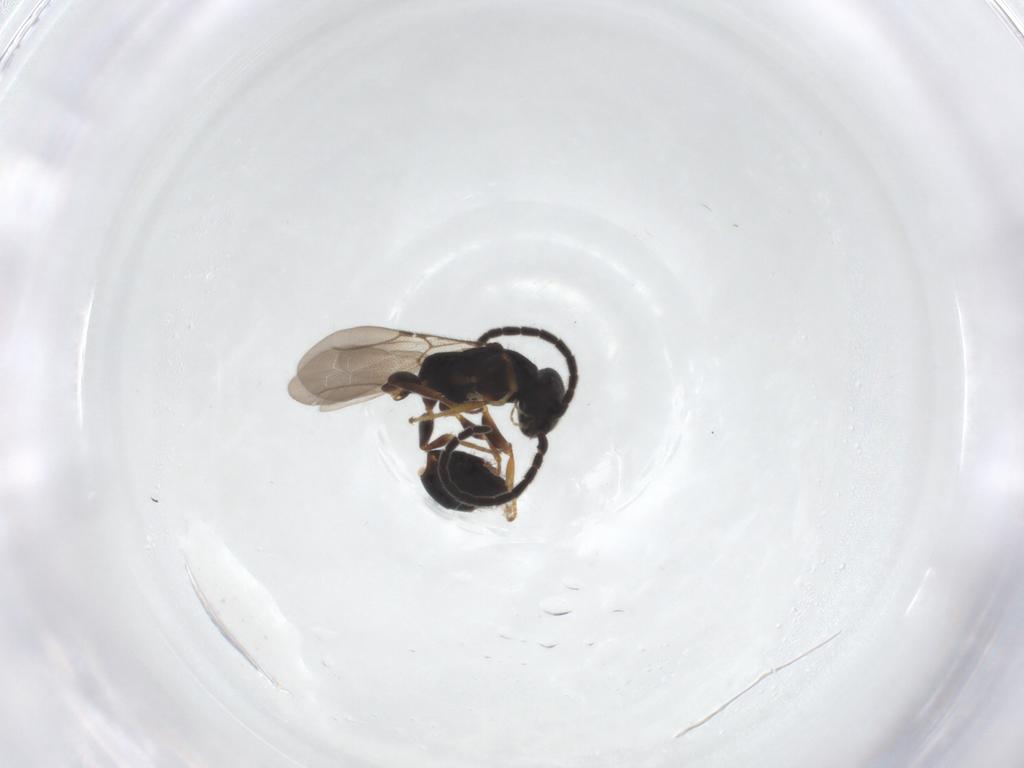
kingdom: Animalia
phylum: Arthropoda
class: Insecta
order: Hymenoptera
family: Bethylidae
